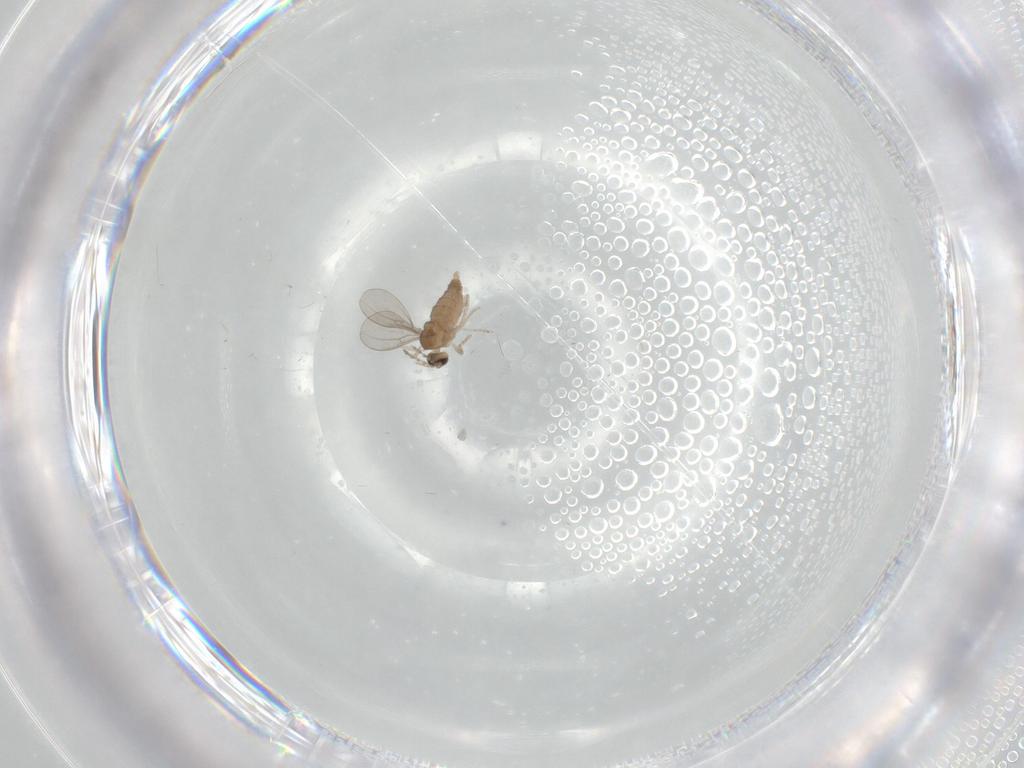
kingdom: Animalia
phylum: Arthropoda
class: Insecta
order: Diptera
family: Cecidomyiidae
